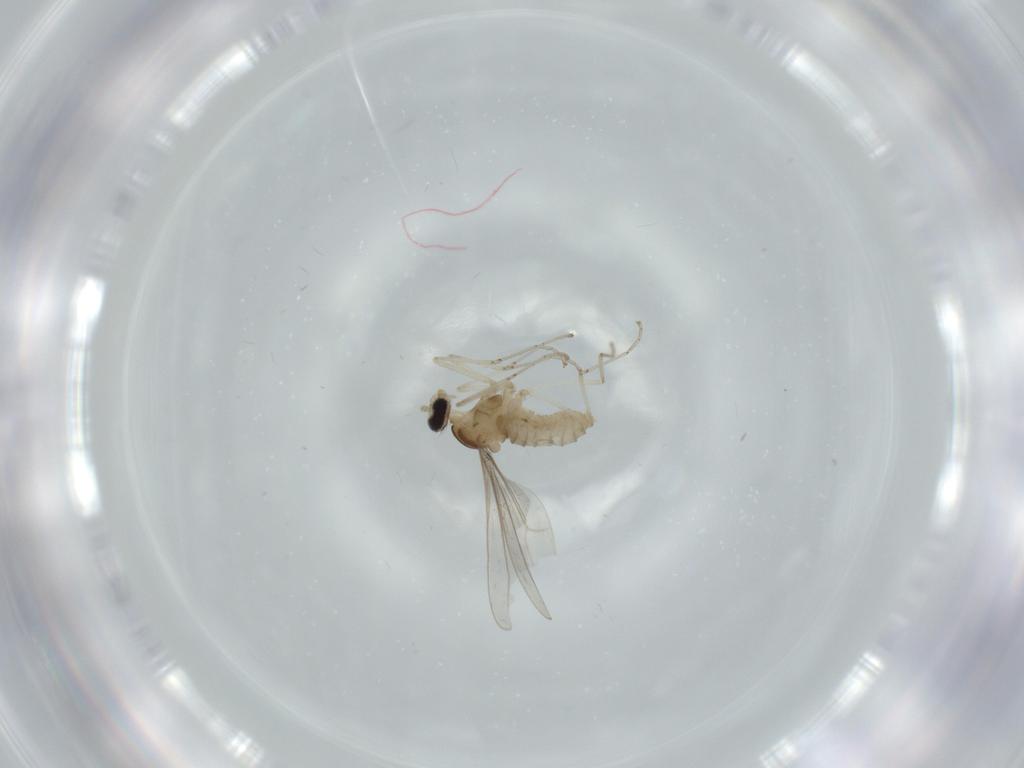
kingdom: Animalia
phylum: Arthropoda
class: Insecta
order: Diptera
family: Cecidomyiidae
